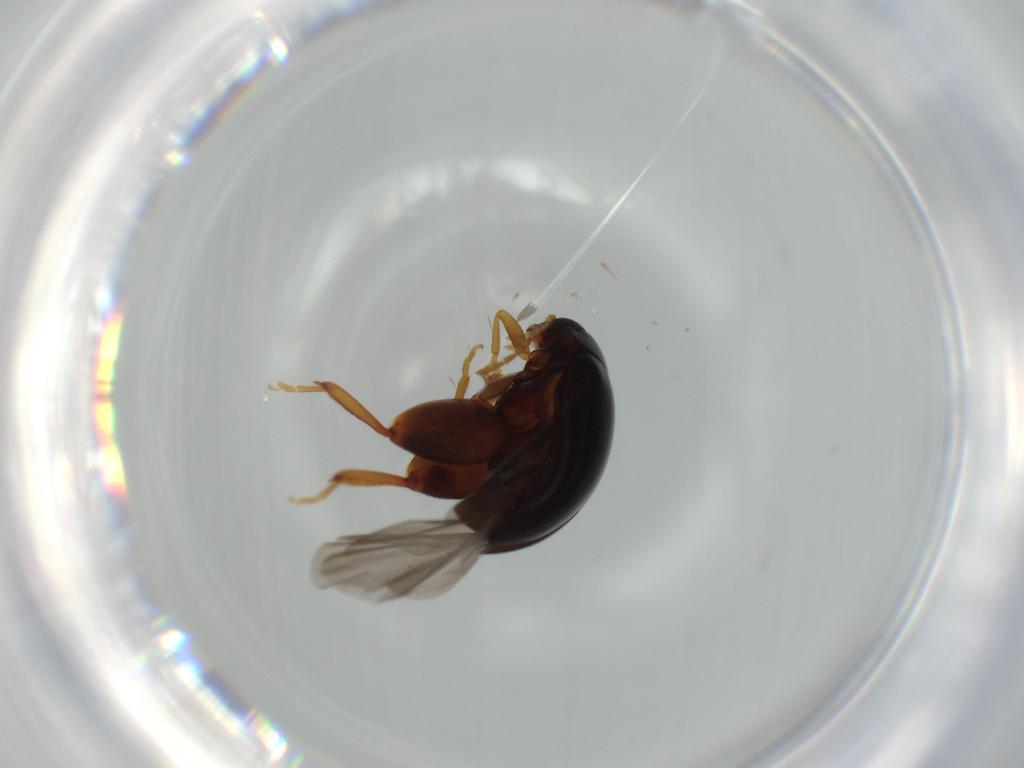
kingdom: Animalia
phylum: Arthropoda
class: Insecta
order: Coleoptera
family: Chrysomelidae
